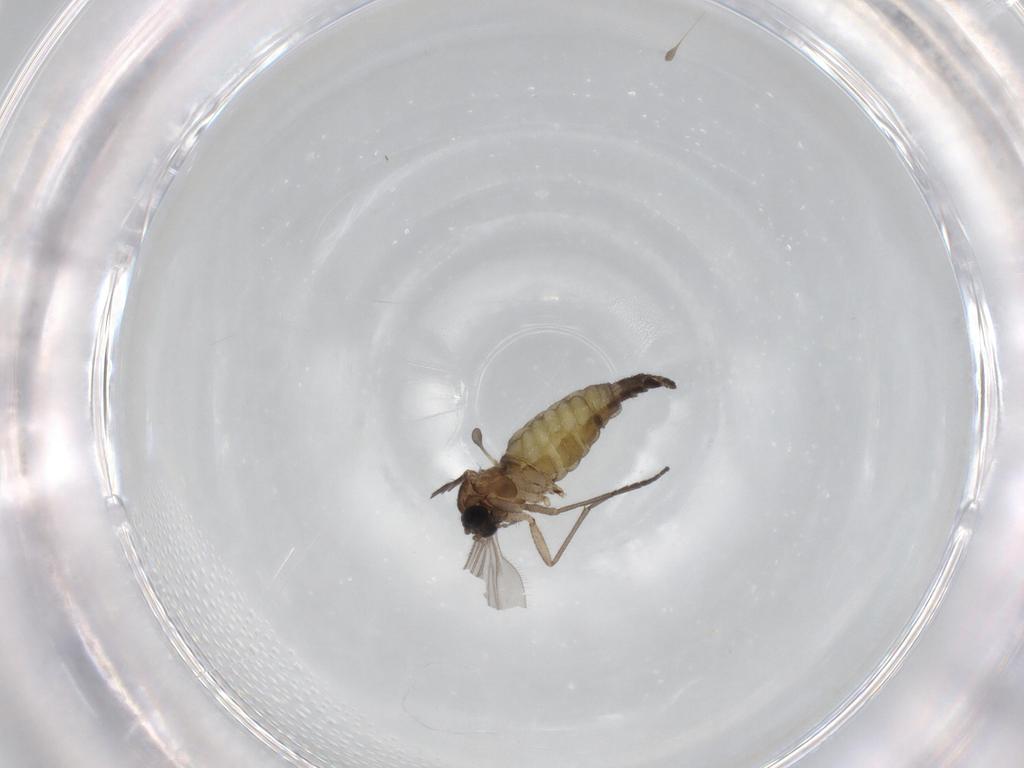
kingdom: Animalia
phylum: Arthropoda
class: Insecta
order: Diptera
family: Sciaridae
